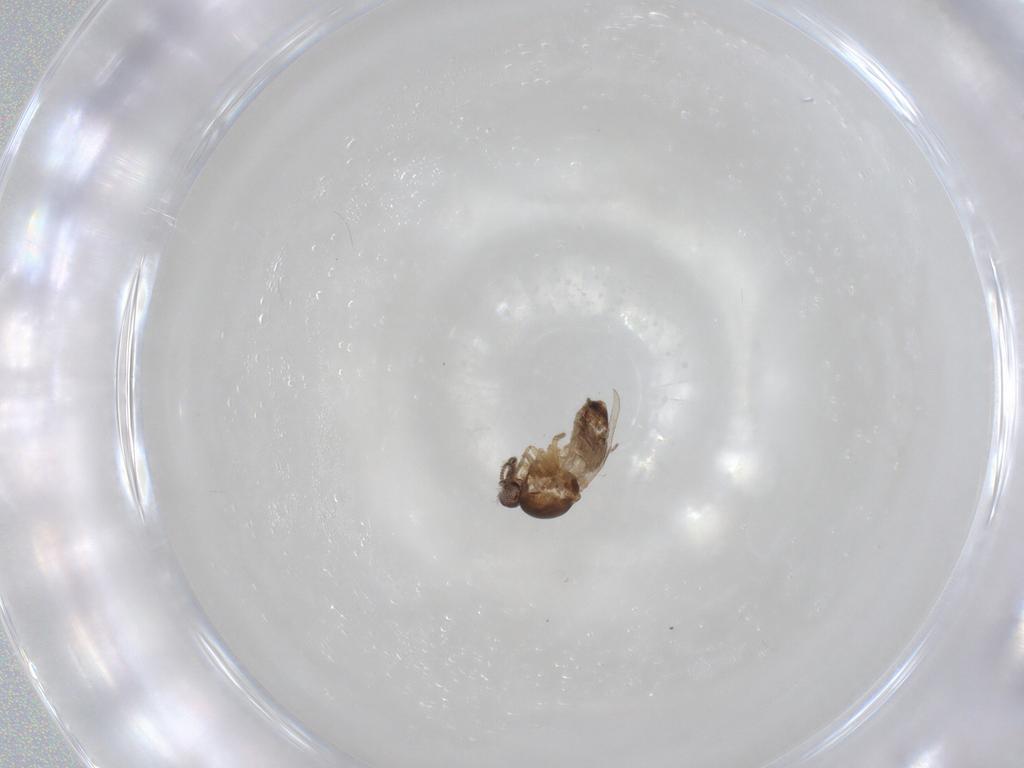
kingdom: Animalia
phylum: Arthropoda
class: Insecta
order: Diptera
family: Ceratopogonidae
